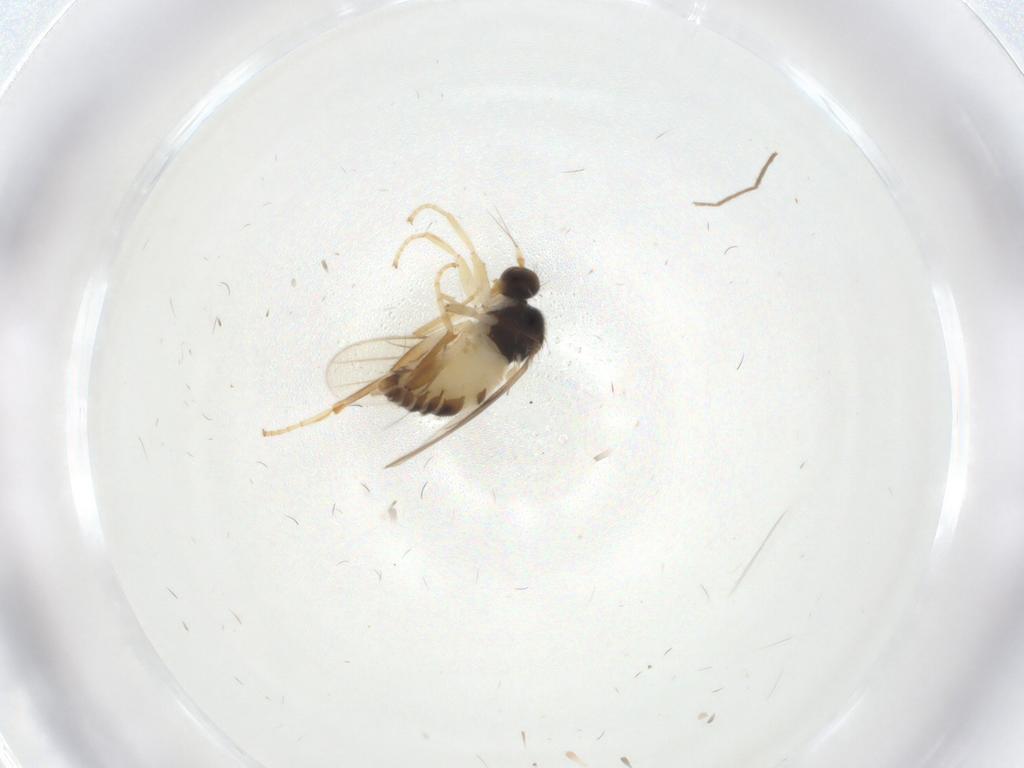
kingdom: Animalia
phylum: Arthropoda
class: Insecta
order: Diptera
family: Hybotidae
